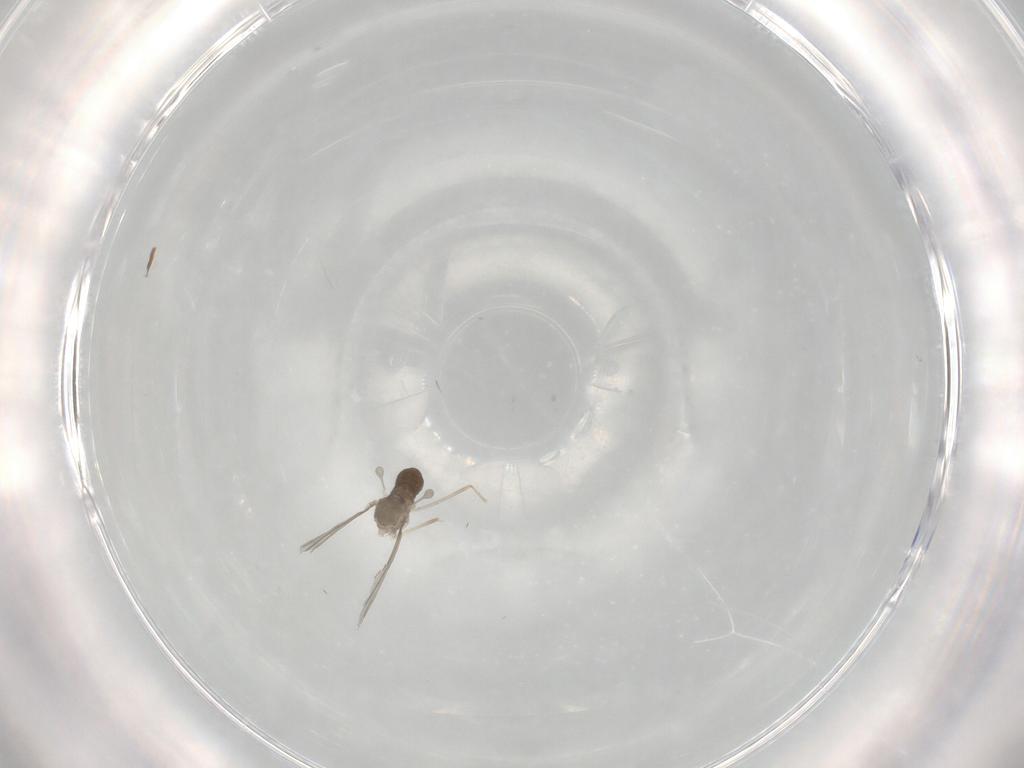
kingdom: Animalia
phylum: Arthropoda
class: Insecta
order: Diptera
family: Cecidomyiidae
